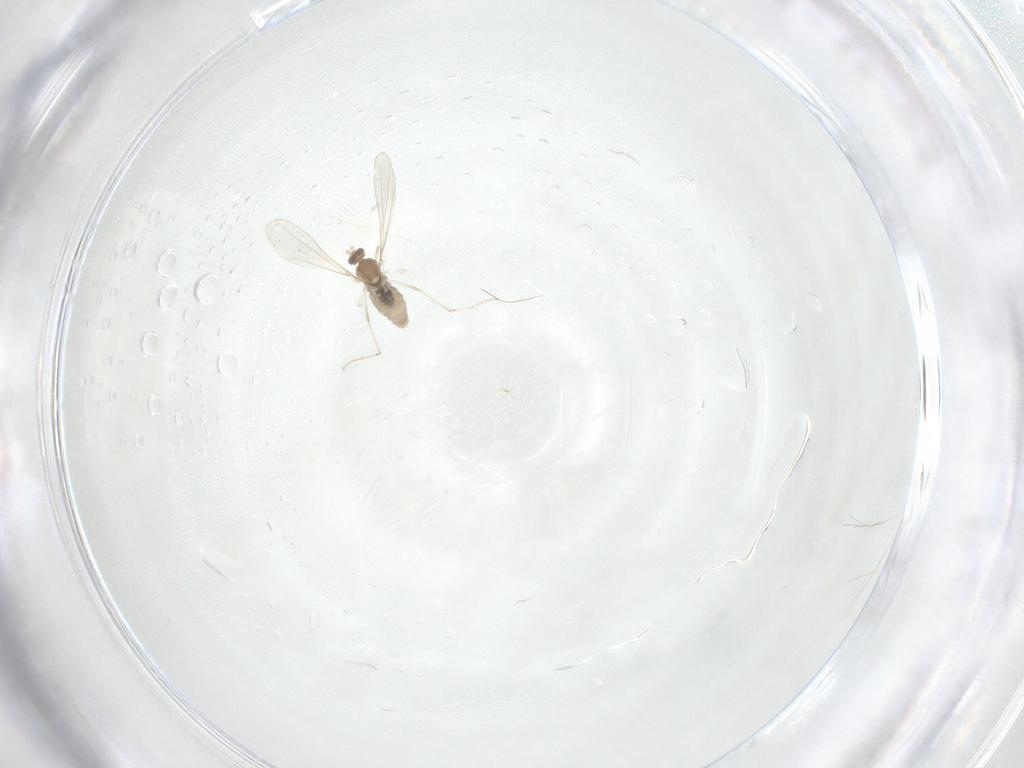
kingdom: Animalia
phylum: Arthropoda
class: Insecta
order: Diptera
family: Cecidomyiidae
